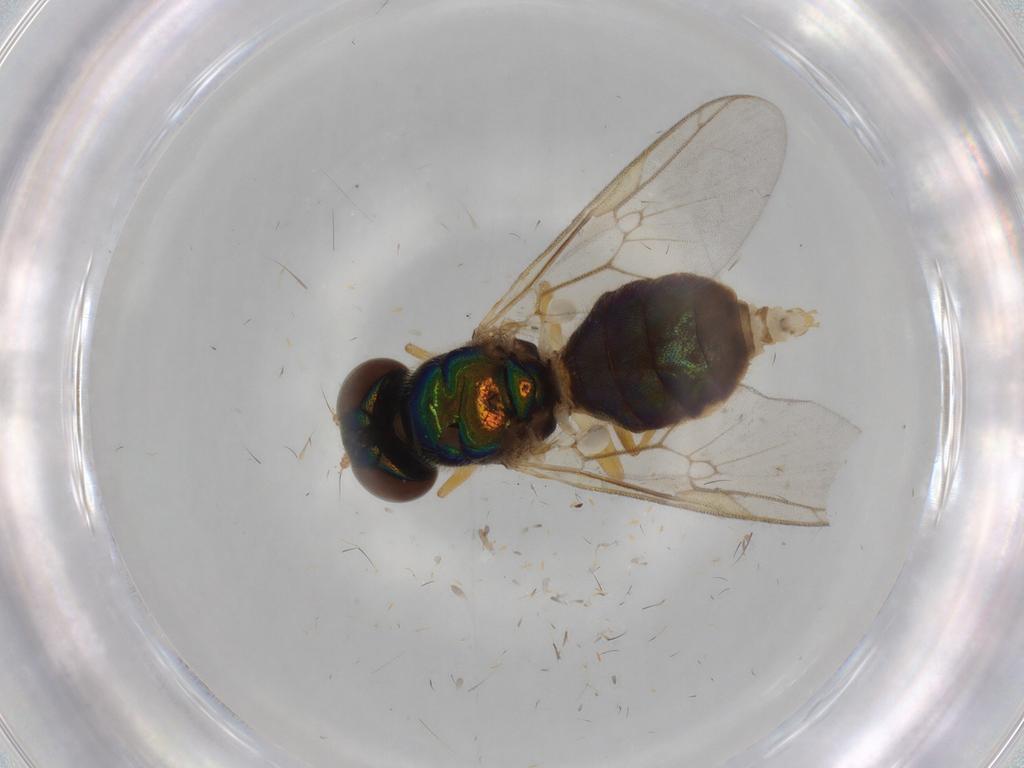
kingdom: Animalia
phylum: Arthropoda
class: Insecta
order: Diptera
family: Dolichopodidae
